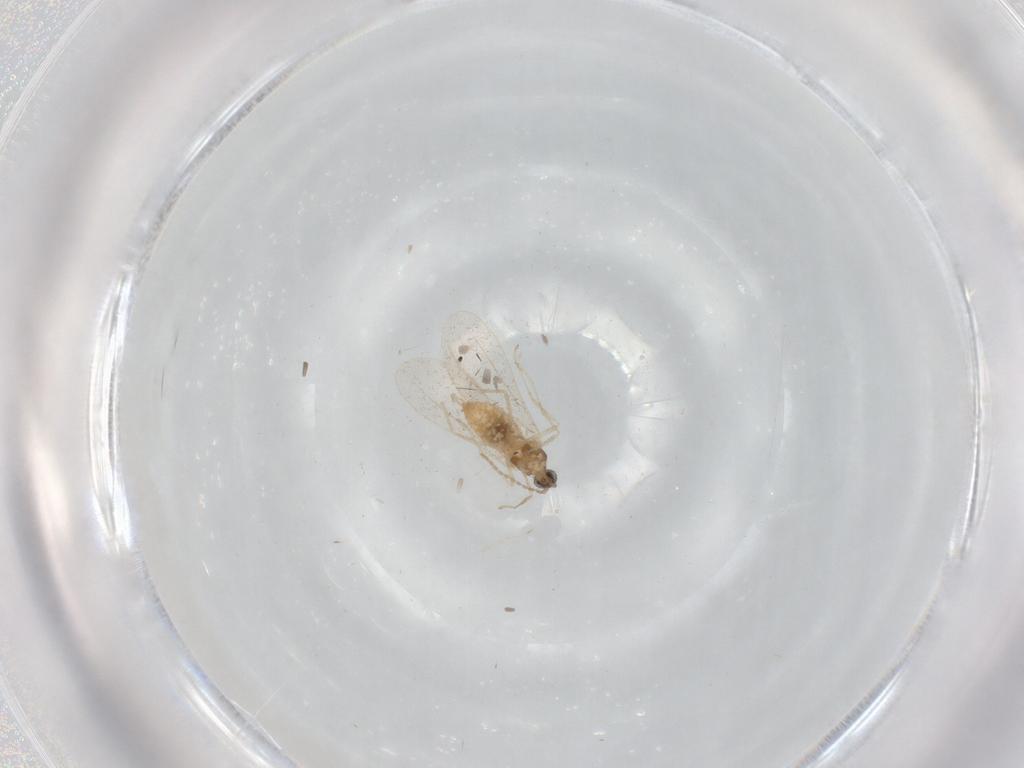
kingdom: Animalia
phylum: Arthropoda
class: Insecta
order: Diptera
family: Cecidomyiidae
